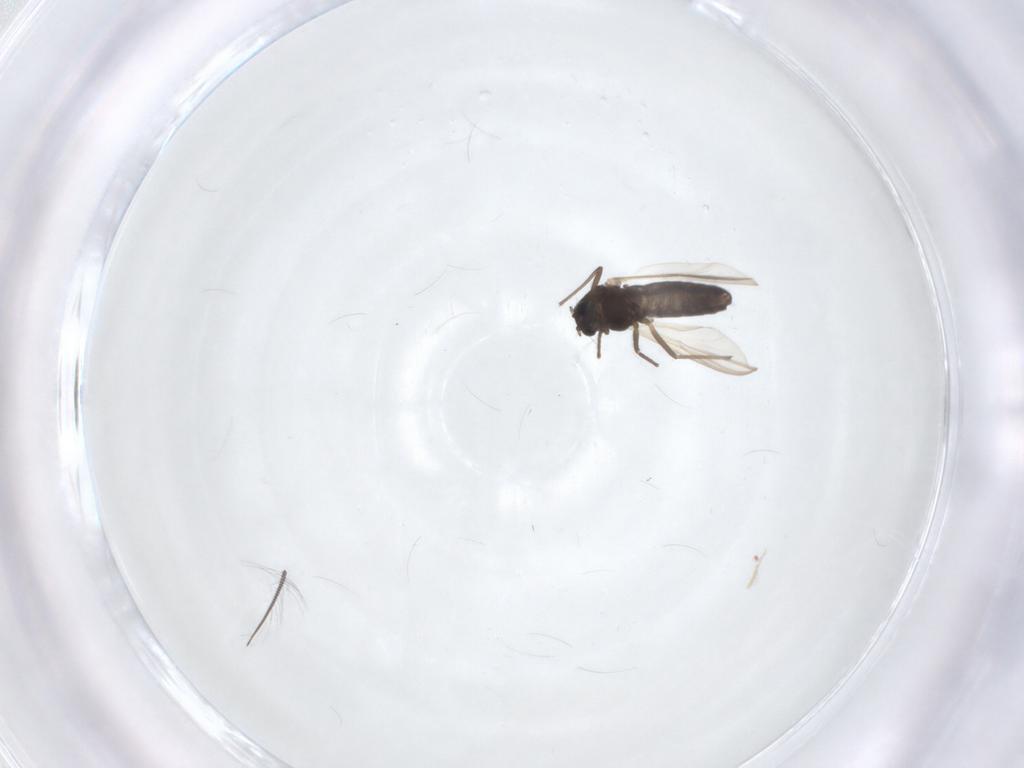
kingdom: Animalia
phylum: Arthropoda
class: Insecta
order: Diptera
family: Chironomidae
